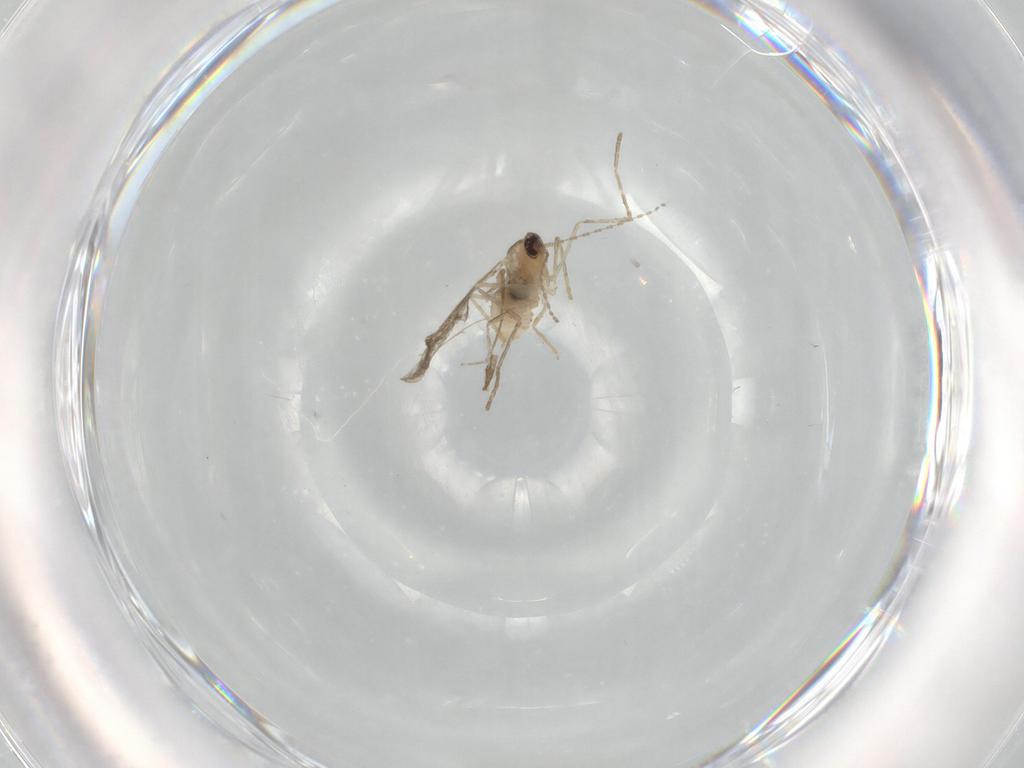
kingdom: Animalia
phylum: Arthropoda
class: Insecta
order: Diptera
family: Cecidomyiidae
